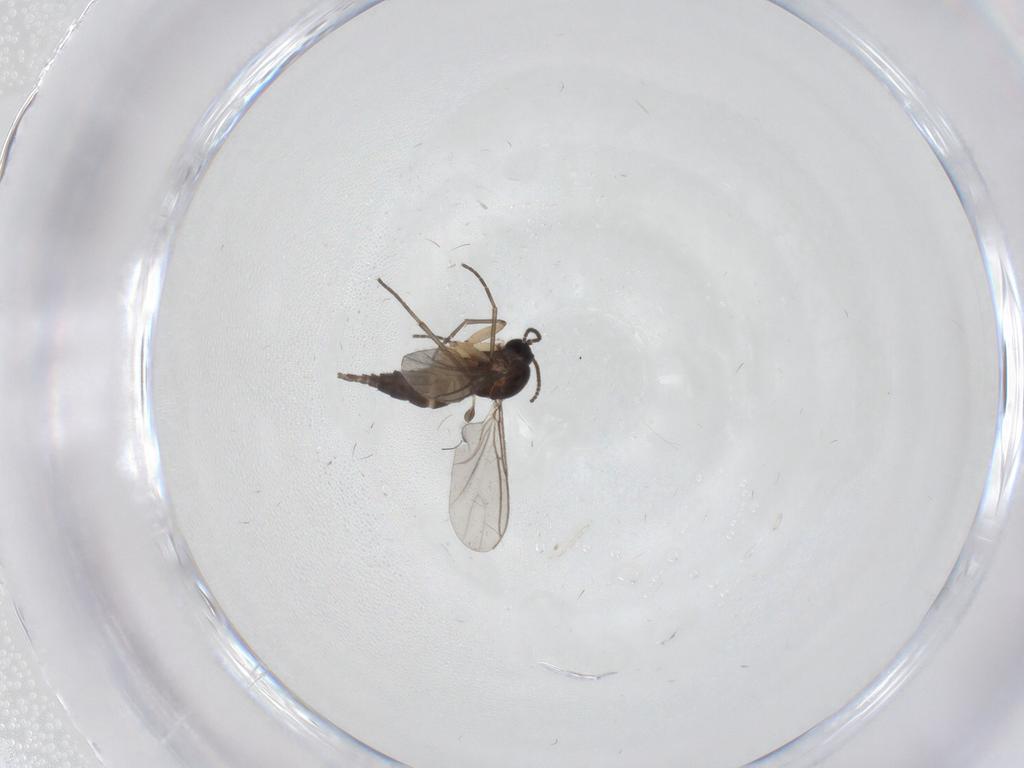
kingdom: Animalia
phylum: Arthropoda
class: Insecta
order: Diptera
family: Sciaridae
